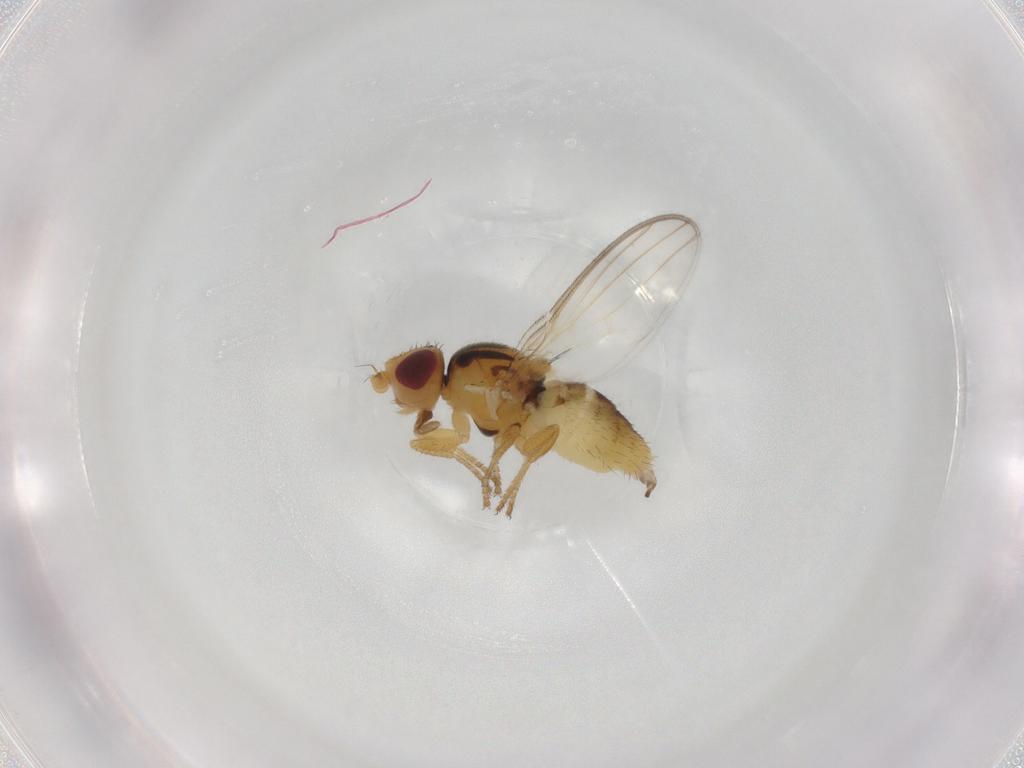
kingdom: Animalia
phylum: Arthropoda
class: Insecta
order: Diptera
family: Chloropidae
